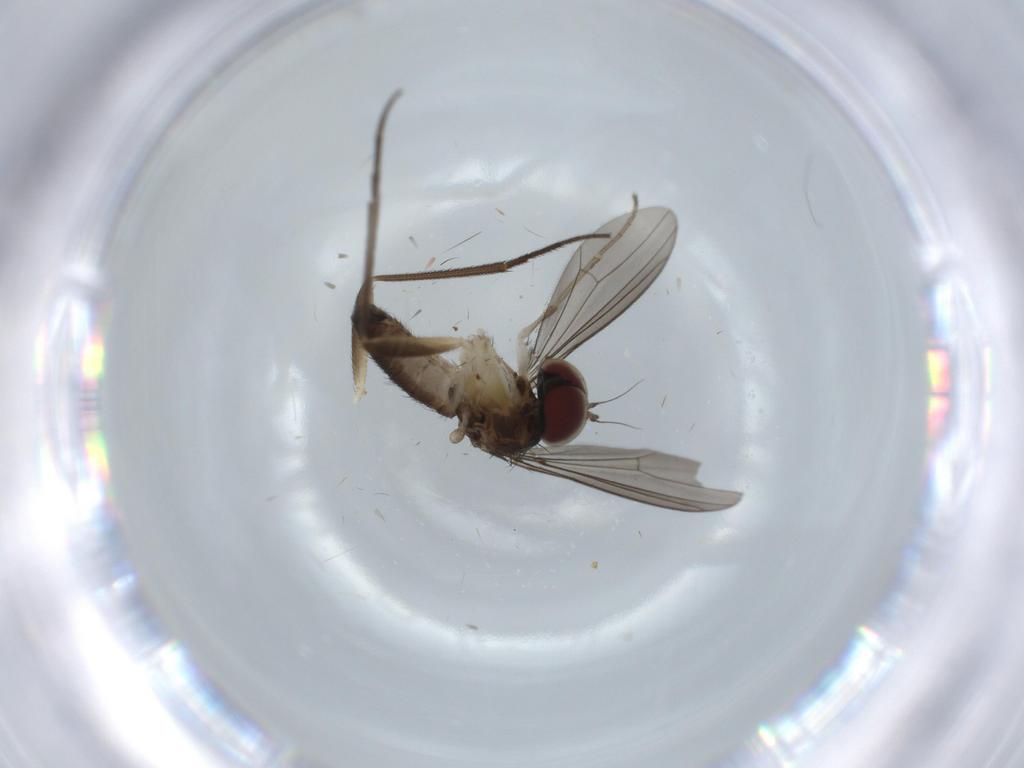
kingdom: Animalia
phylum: Arthropoda
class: Insecta
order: Diptera
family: Dolichopodidae
